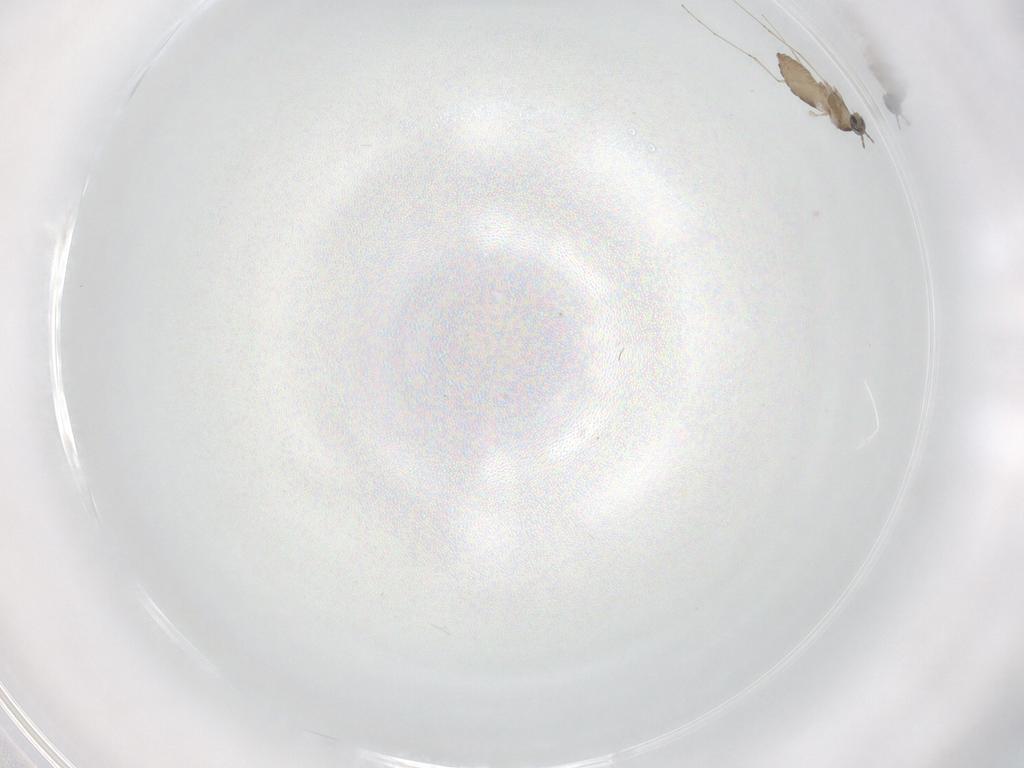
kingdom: Animalia
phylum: Arthropoda
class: Insecta
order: Diptera
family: Cecidomyiidae
